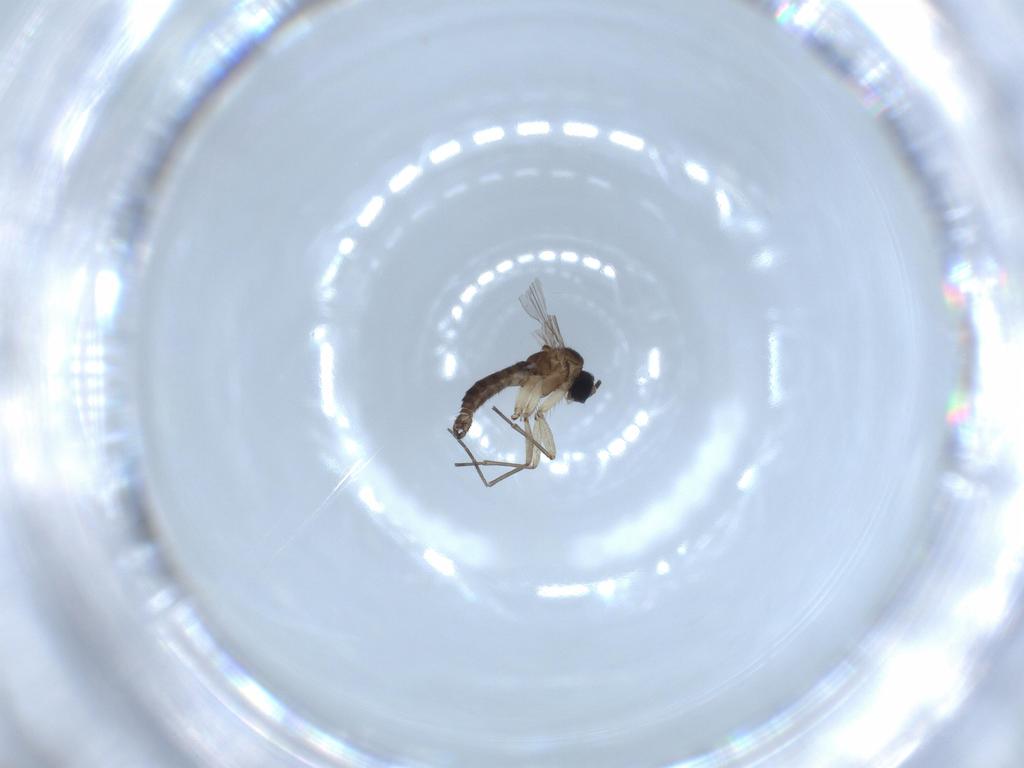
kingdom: Animalia
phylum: Arthropoda
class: Insecta
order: Diptera
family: Sciaridae
